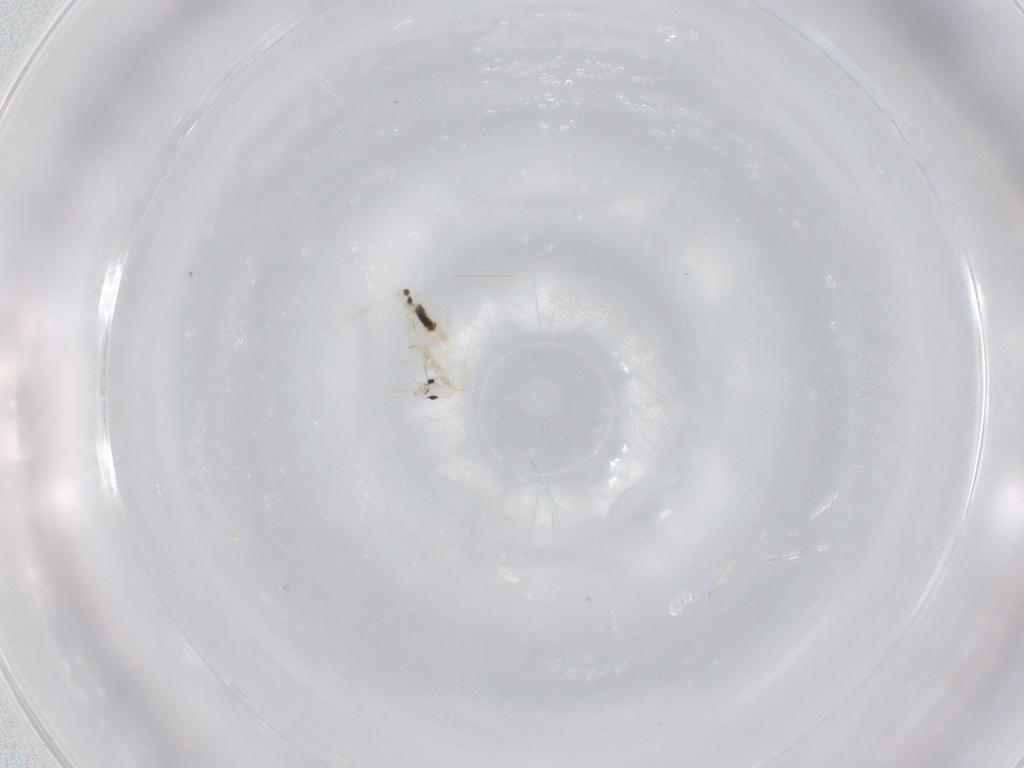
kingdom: Animalia
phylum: Arthropoda
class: Collembola
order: Entomobryomorpha
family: Entomobryidae
